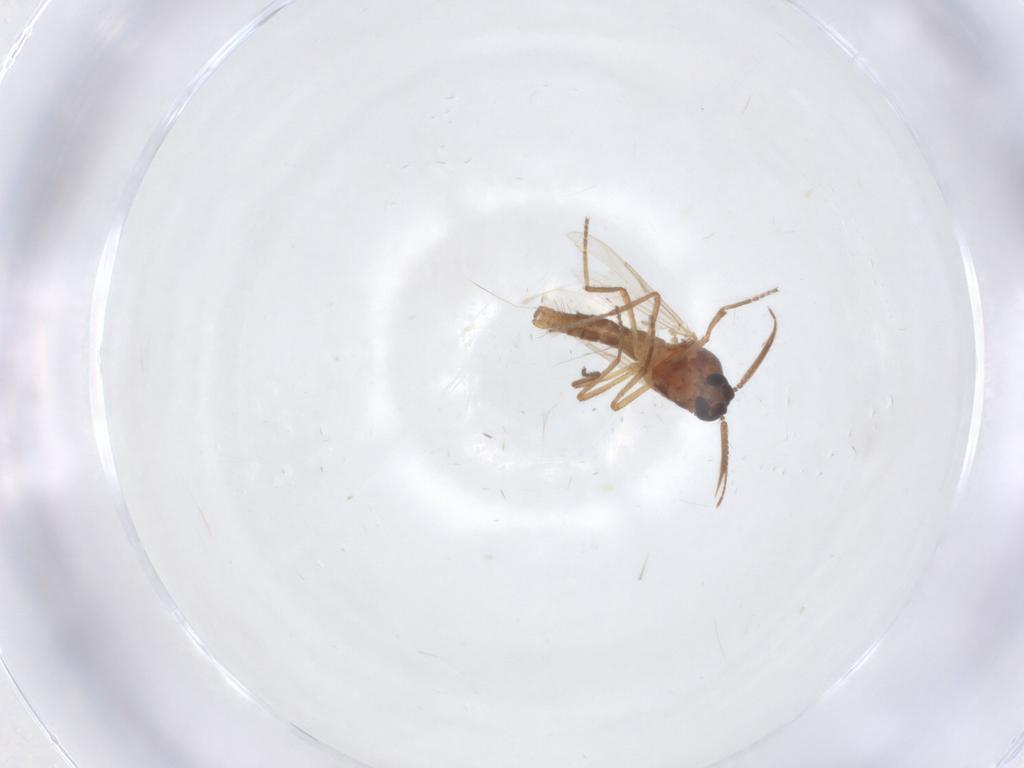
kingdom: Animalia
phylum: Arthropoda
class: Insecta
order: Diptera
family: Ceratopogonidae
